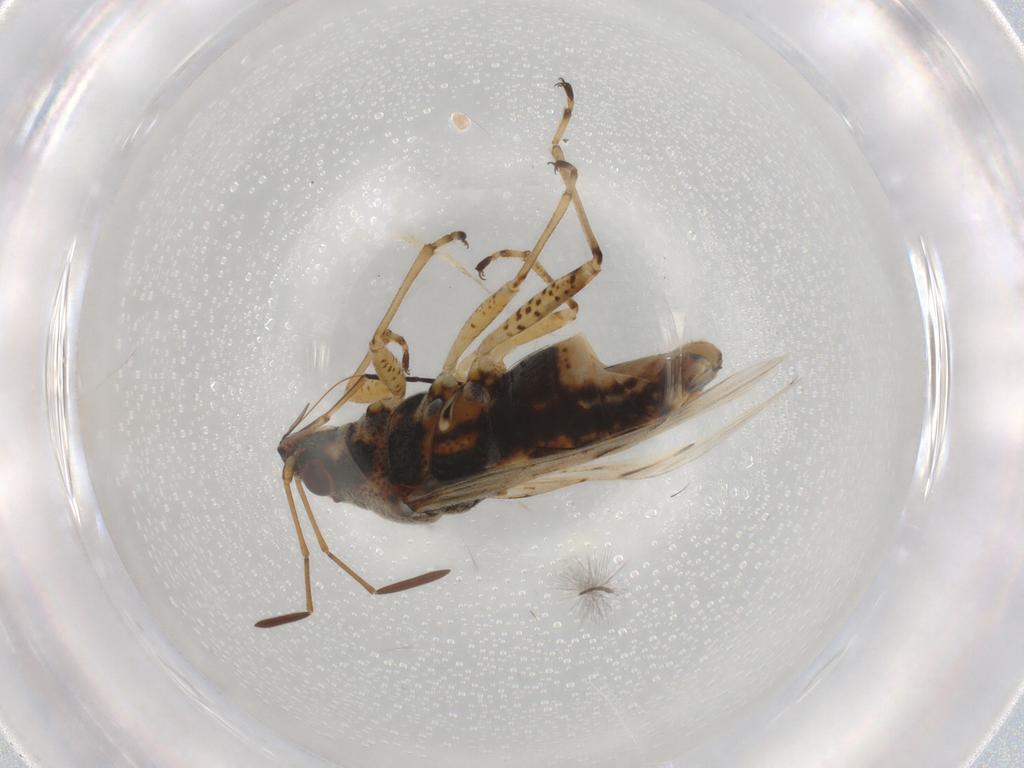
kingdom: Animalia
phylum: Arthropoda
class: Insecta
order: Hemiptera
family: Lygaeidae
